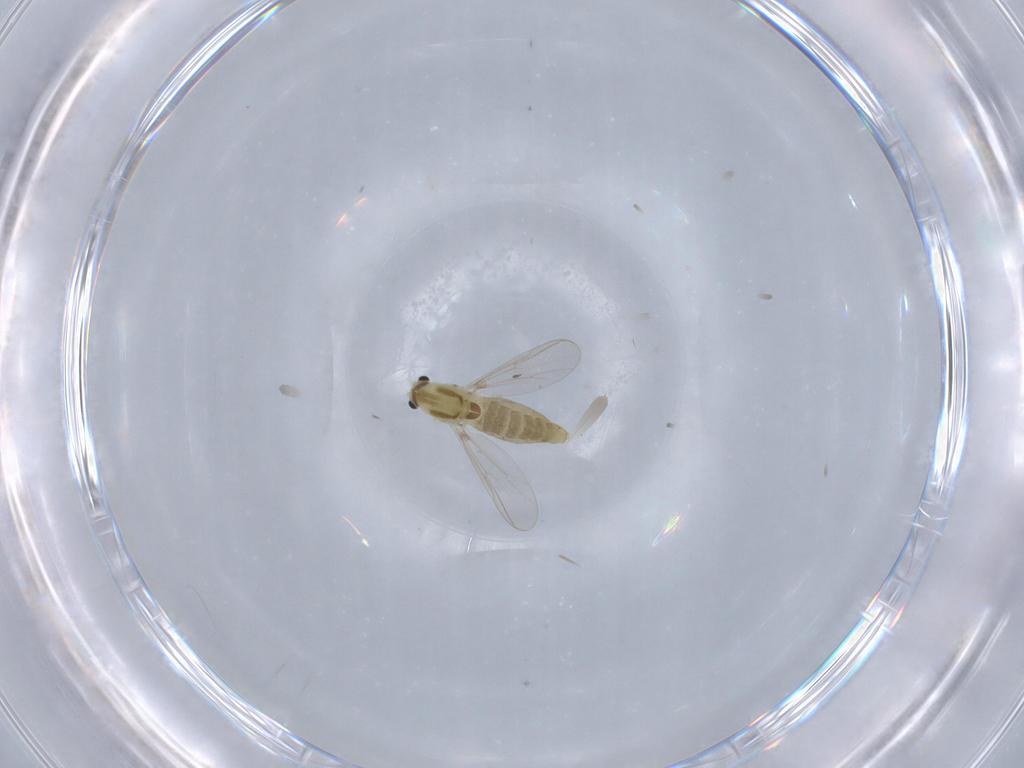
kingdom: Animalia
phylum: Arthropoda
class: Insecta
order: Diptera
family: Chironomidae
